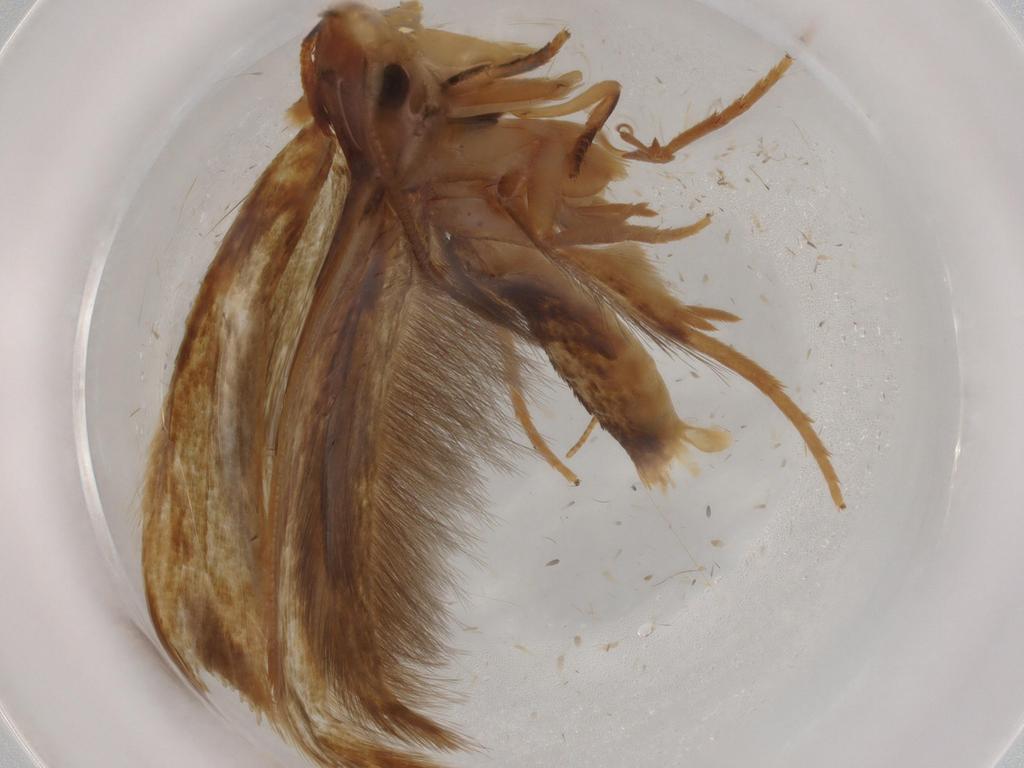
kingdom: Animalia
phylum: Arthropoda
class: Insecta
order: Lepidoptera
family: Tineidae
